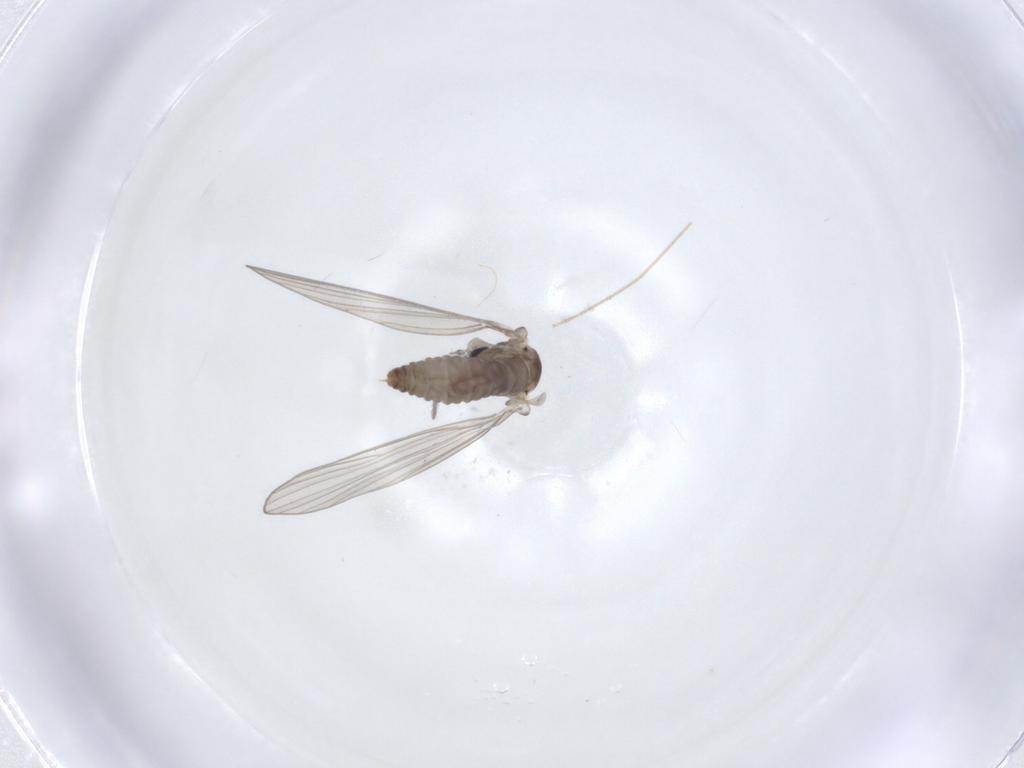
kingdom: Animalia
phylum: Arthropoda
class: Insecta
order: Diptera
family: Psychodidae
